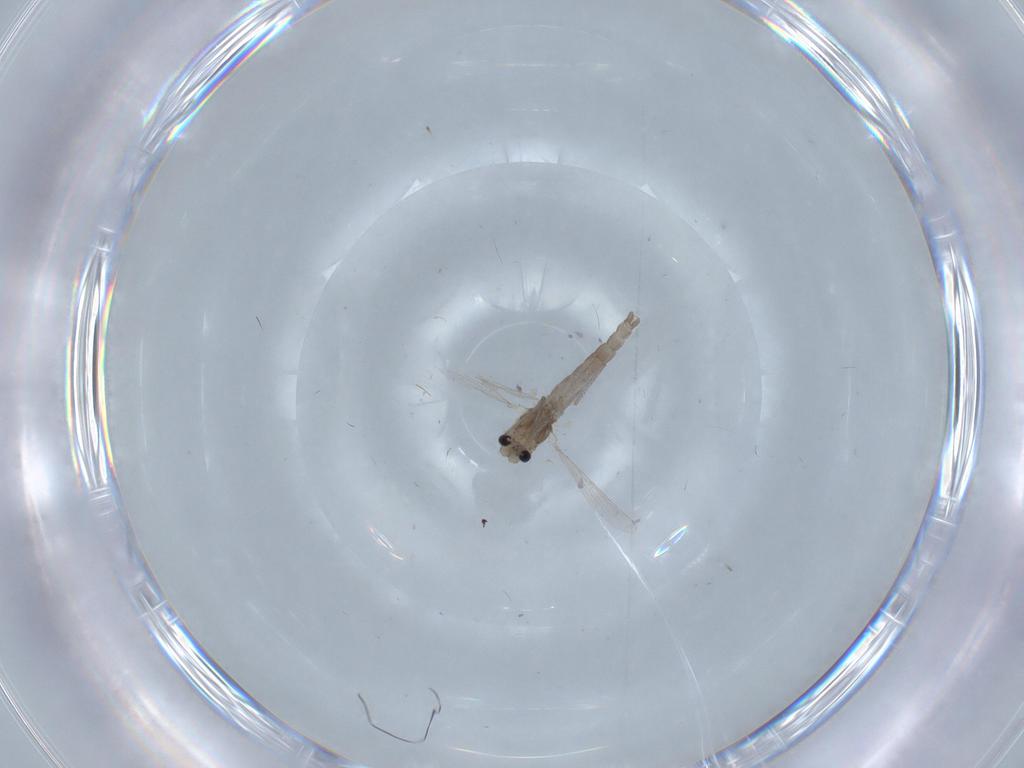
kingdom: Animalia
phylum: Arthropoda
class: Insecta
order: Diptera
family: Chironomidae
